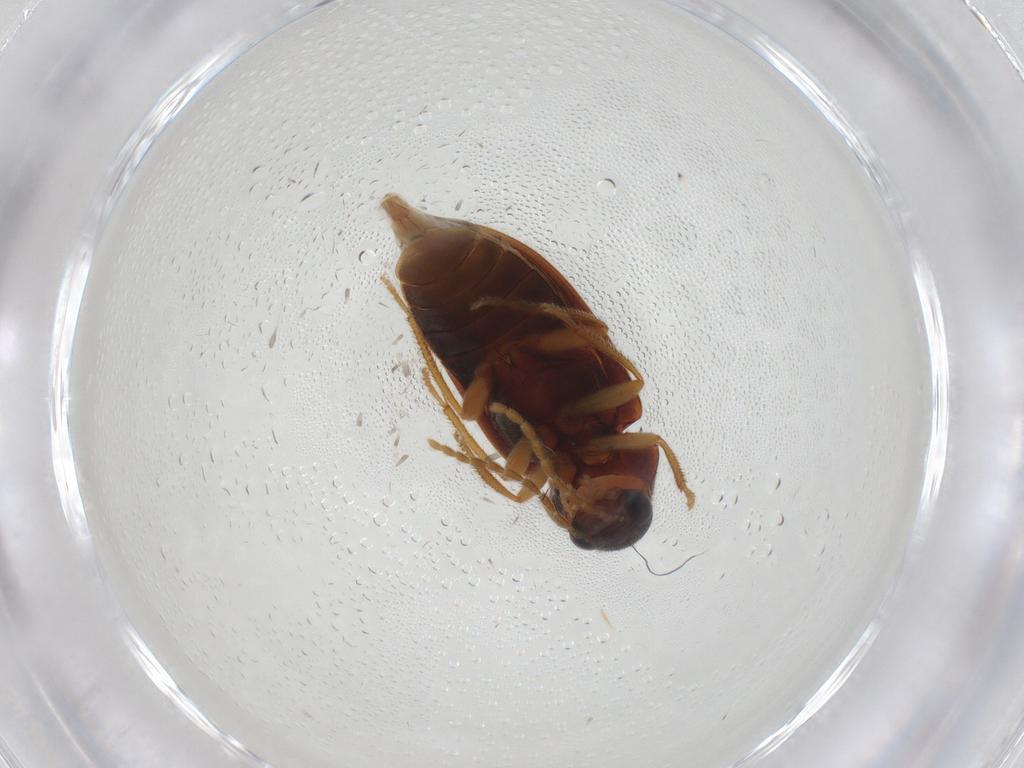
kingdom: Animalia
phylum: Arthropoda
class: Insecta
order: Coleoptera
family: Ptilodactylidae
